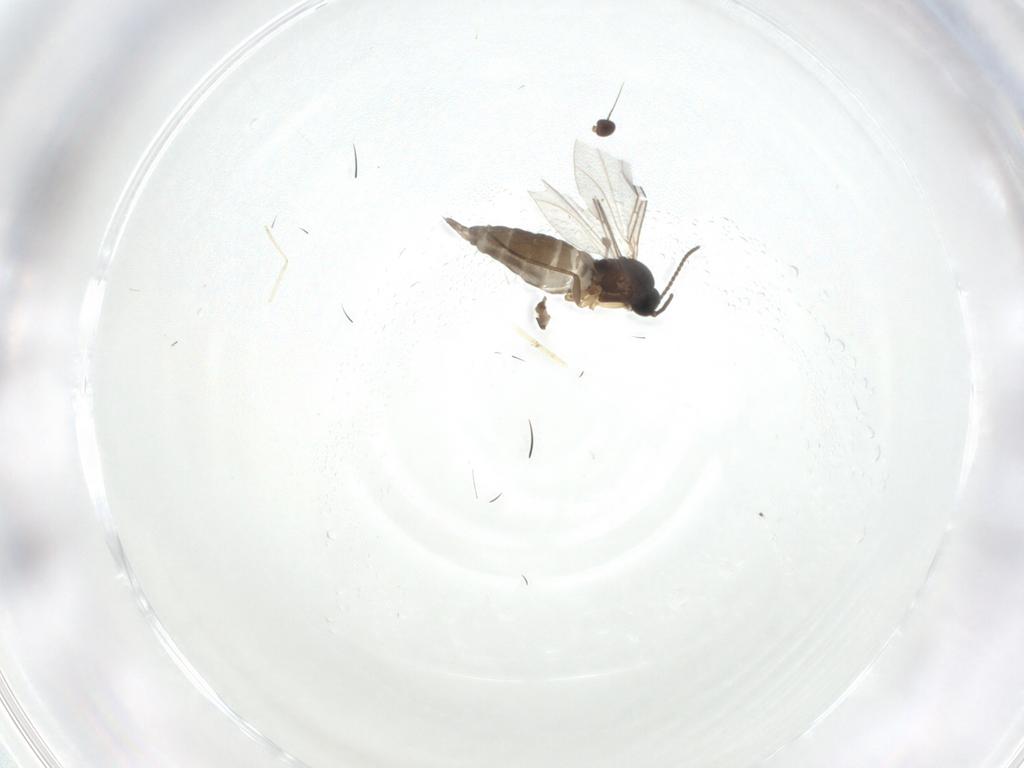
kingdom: Animalia
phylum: Arthropoda
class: Insecta
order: Diptera
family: Sciaridae
